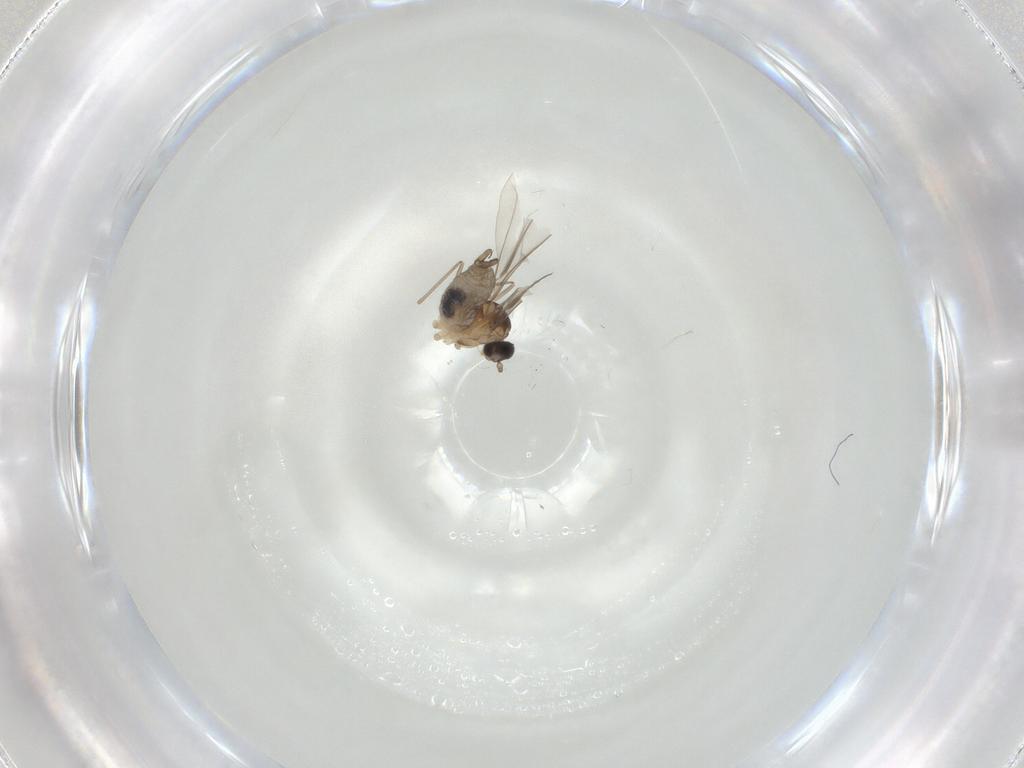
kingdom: Animalia
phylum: Arthropoda
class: Insecta
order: Diptera
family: Cecidomyiidae
